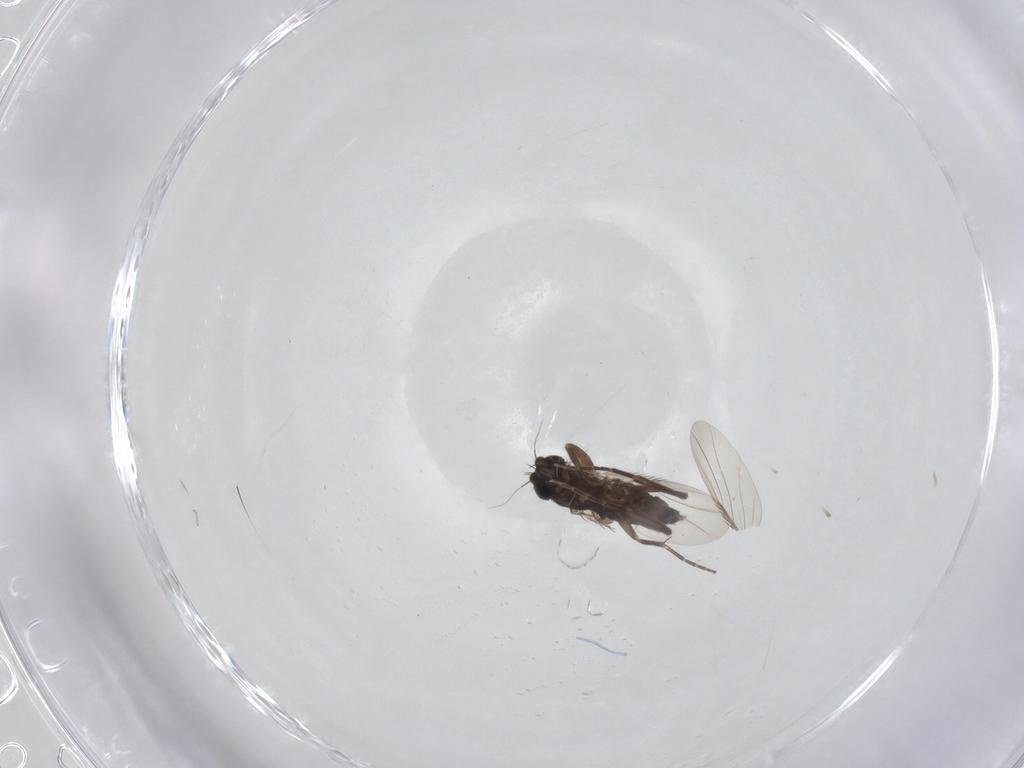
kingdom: Animalia
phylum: Arthropoda
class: Insecta
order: Diptera
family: Phoridae
